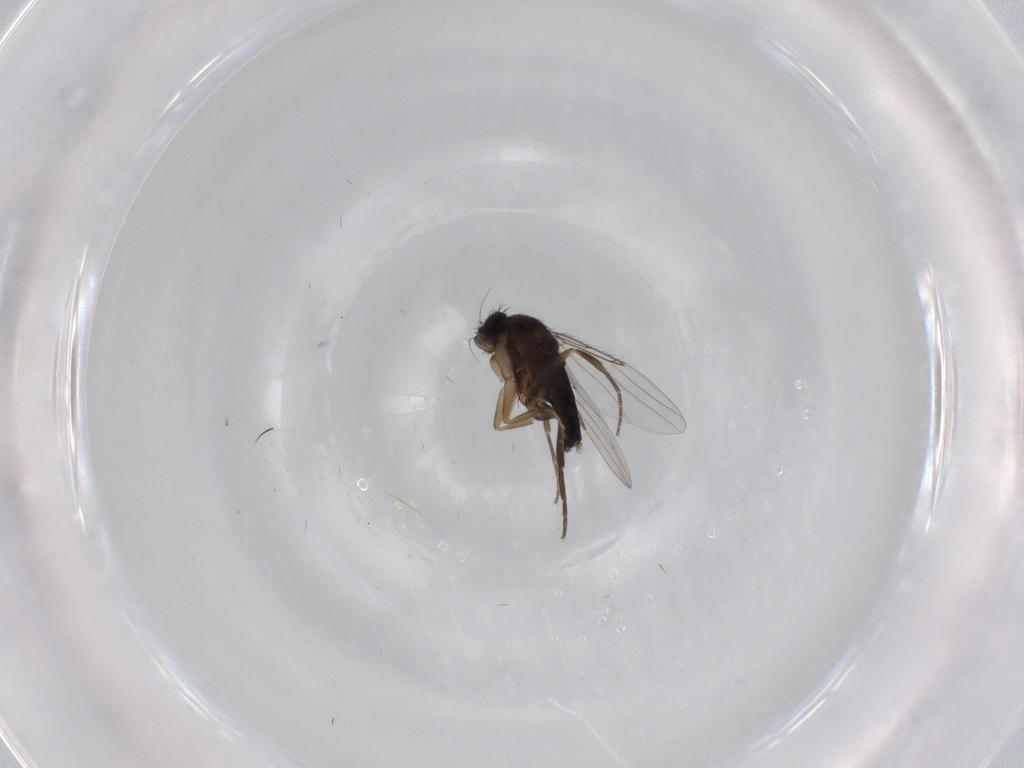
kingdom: Animalia
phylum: Arthropoda
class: Insecta
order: Diptera
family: Phoridae
